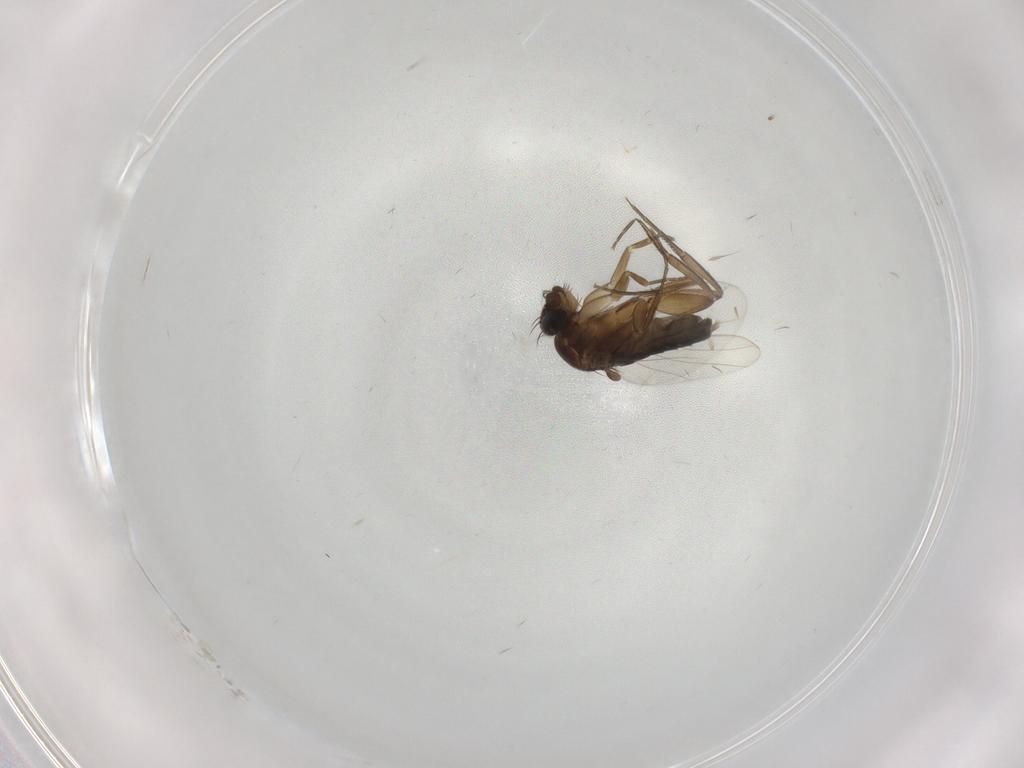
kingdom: Animalia
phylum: Arthropoda
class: Insecta
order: Diptera
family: Phoridae
